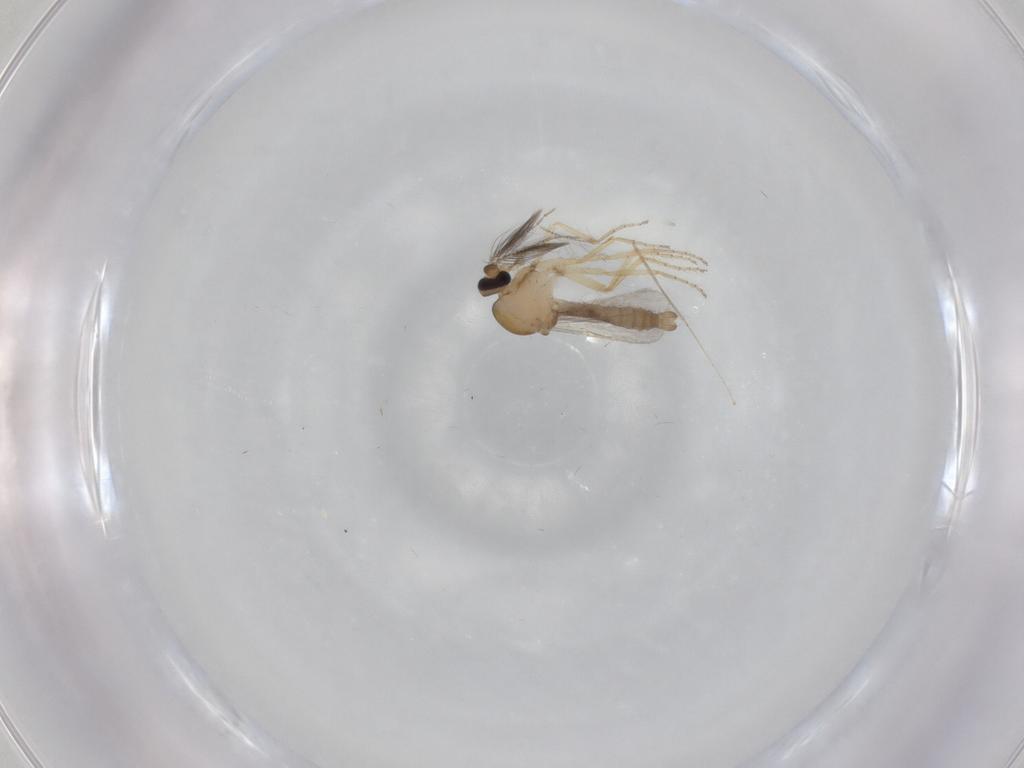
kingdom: Animalia
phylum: Arthropoda
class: Insecta
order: Diptera
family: Ceratopogonidae
